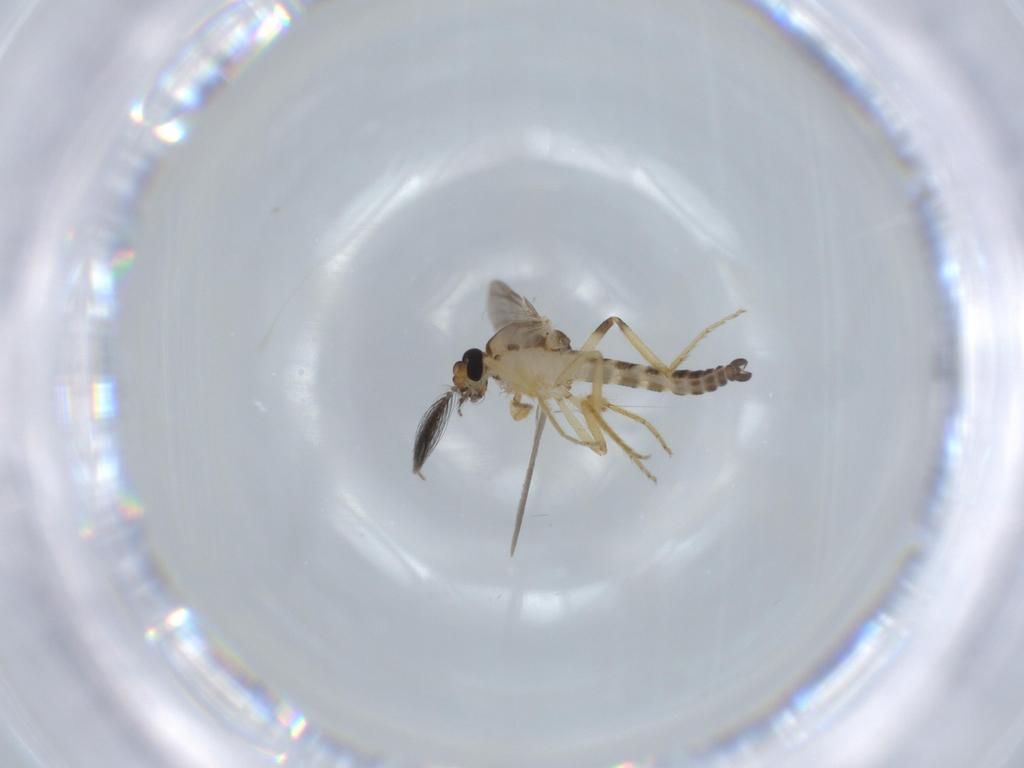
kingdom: Animalia
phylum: Arthropoda
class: Insecta
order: Diptera
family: Ceratopogonidae
